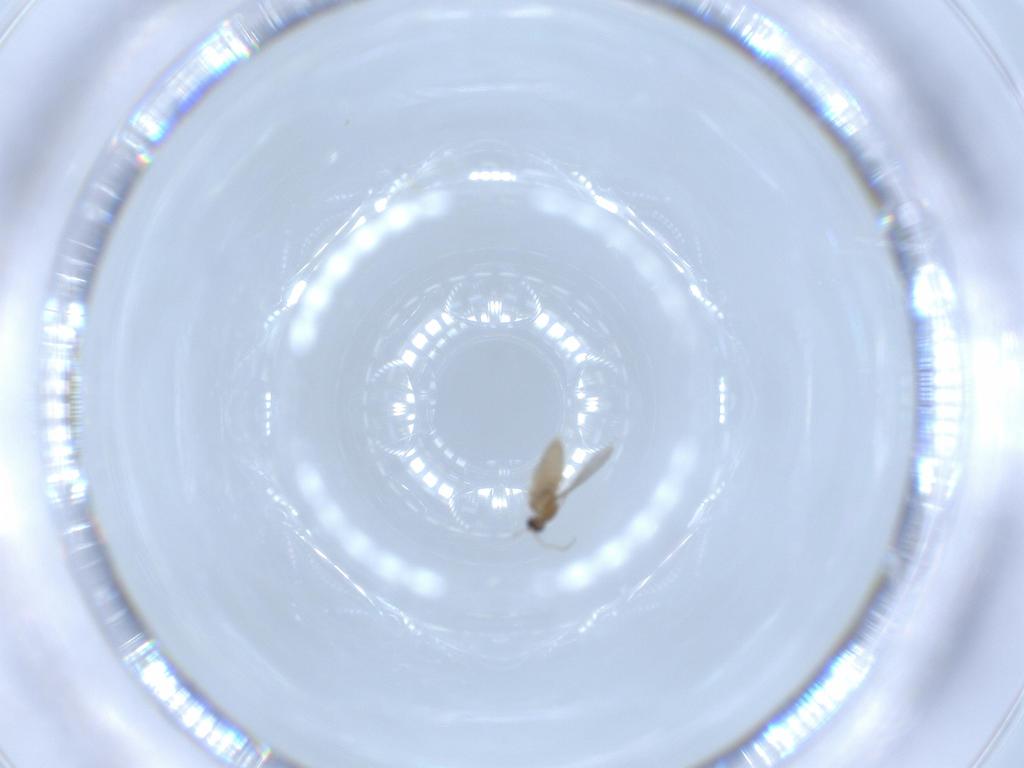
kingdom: Animalia
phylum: Arthropoda
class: Insecta
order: Diptera
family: Cecidomyiidae
